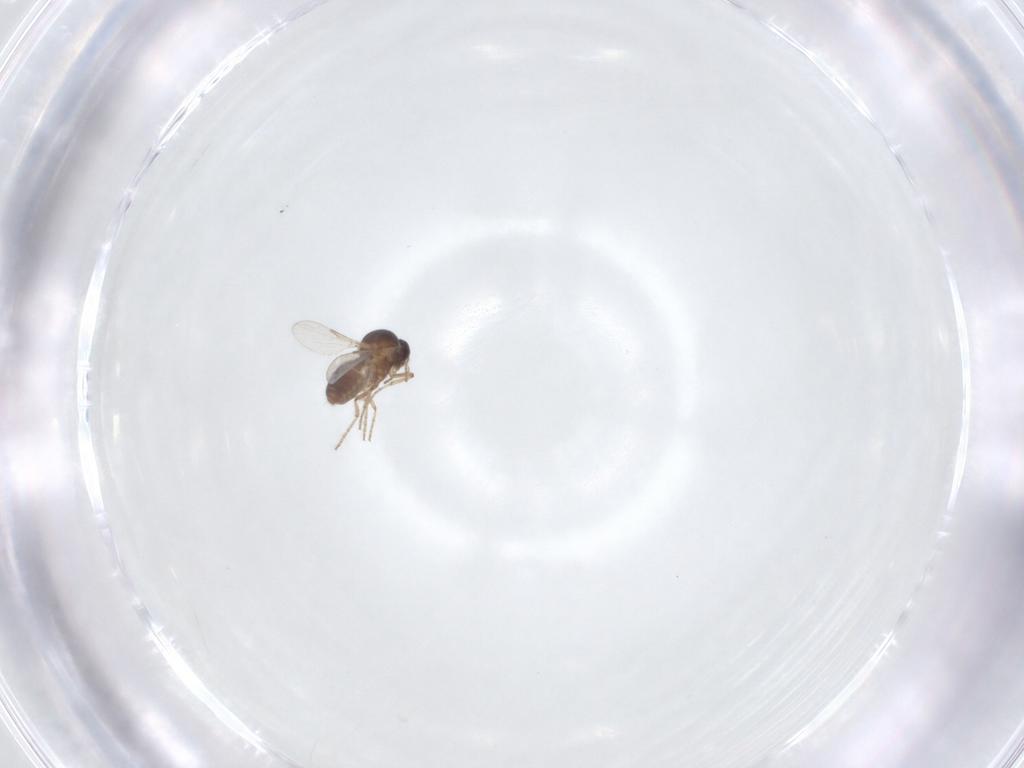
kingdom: Animalia
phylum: Arthropoda
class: Insecta
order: Diptera
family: Ceratopogonidae
